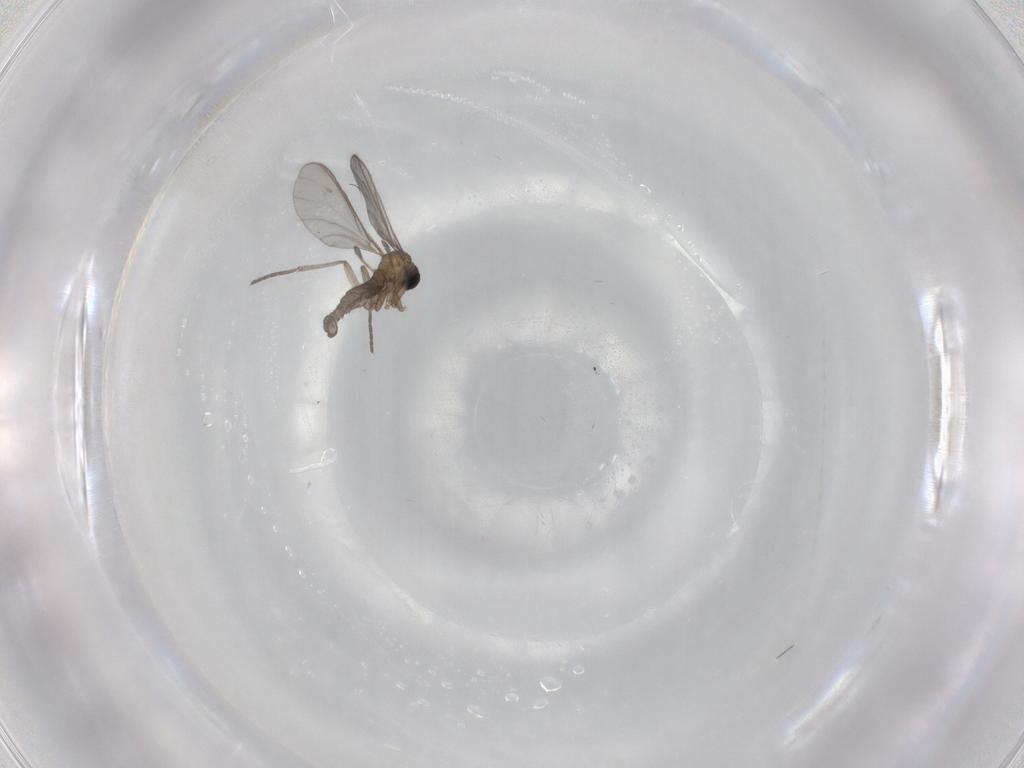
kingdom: Animalia
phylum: Arthropoda
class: Insecta
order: Diptera
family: Sciaridae
